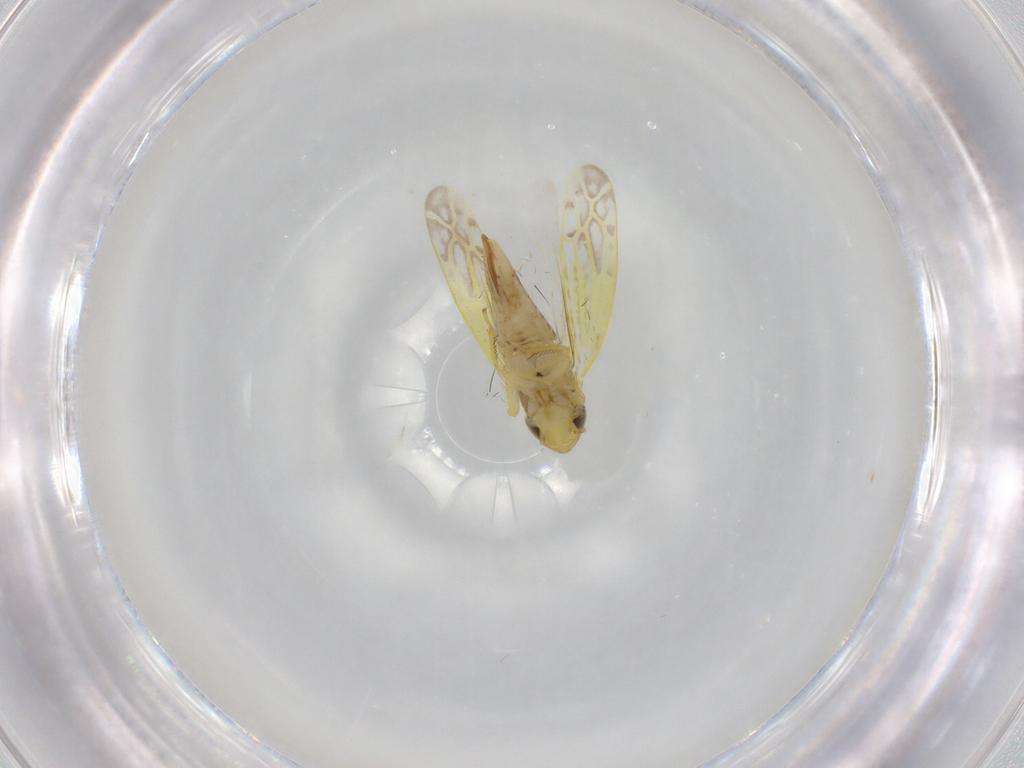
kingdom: Animalia
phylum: Arthropoda
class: Insecta
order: Hemiptera
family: Cicadellidae
